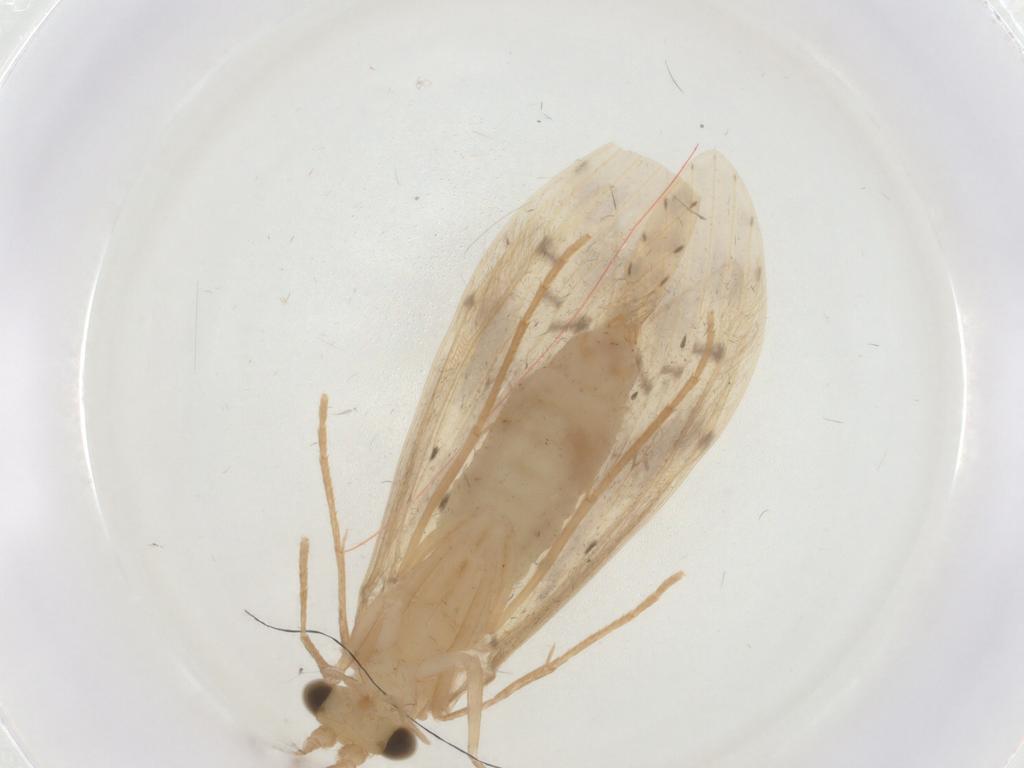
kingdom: Animalia
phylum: Arthropoda
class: Insecta
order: Trichoptera
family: Leptoceridae
